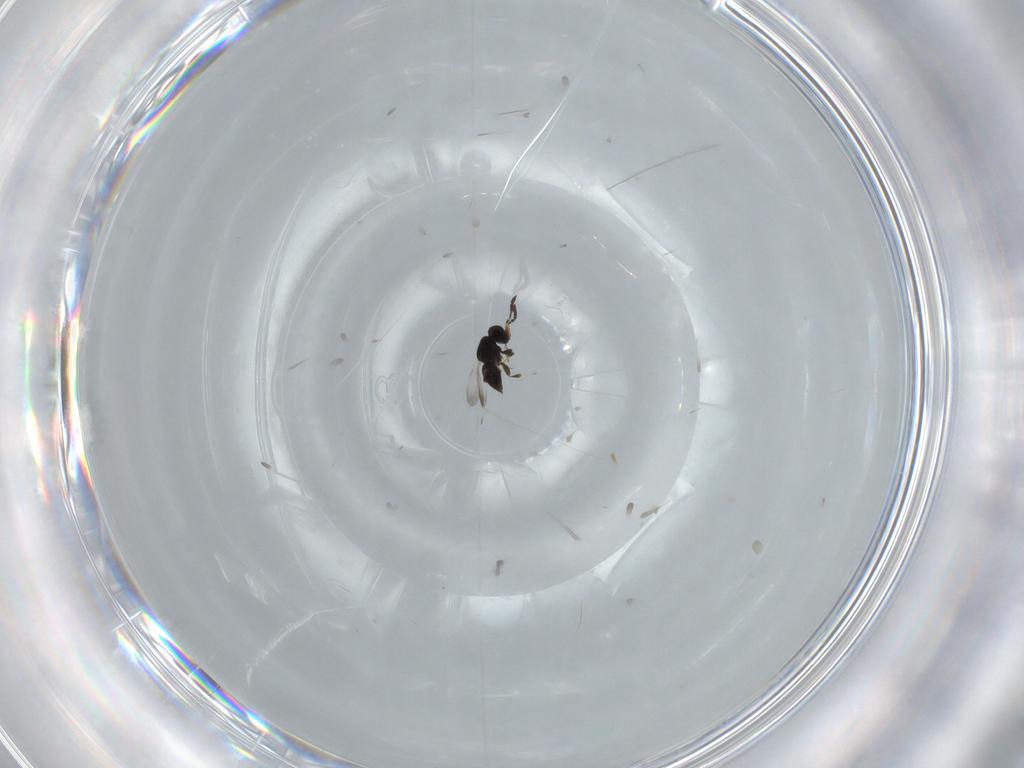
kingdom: Animalia
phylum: Arthropoda
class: Insecta
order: Hymenoptera
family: Ceraphronidae
